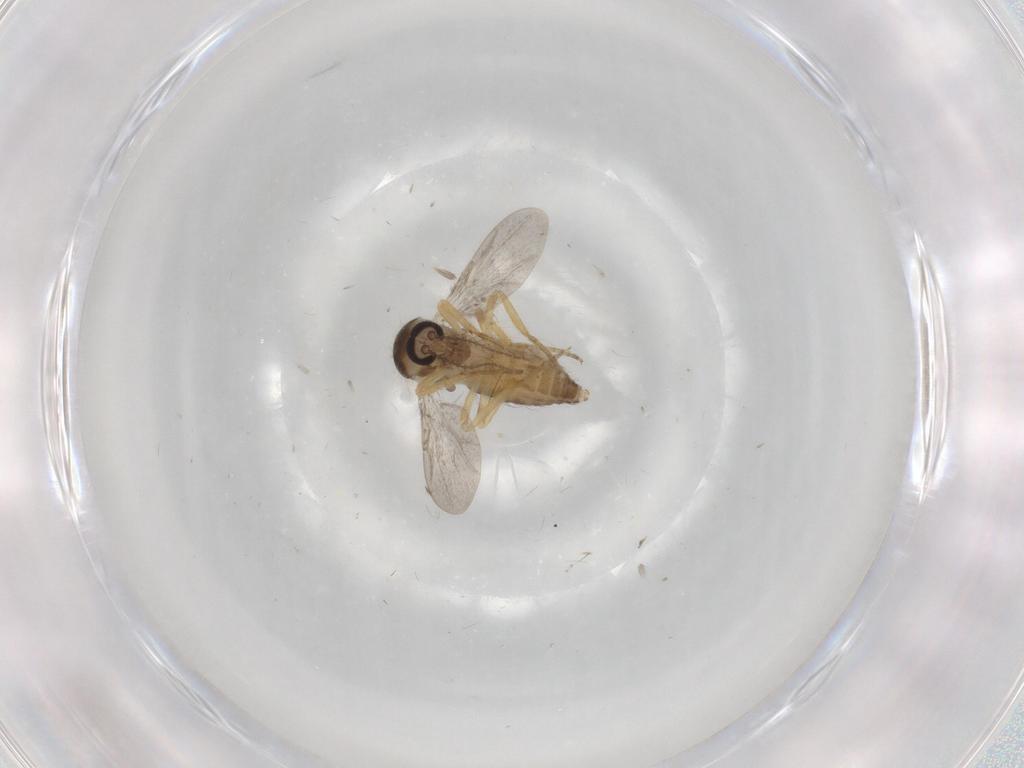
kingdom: Animalia
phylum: Arthropoda
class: Insecta
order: Diptera
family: Ceratopogonidae
